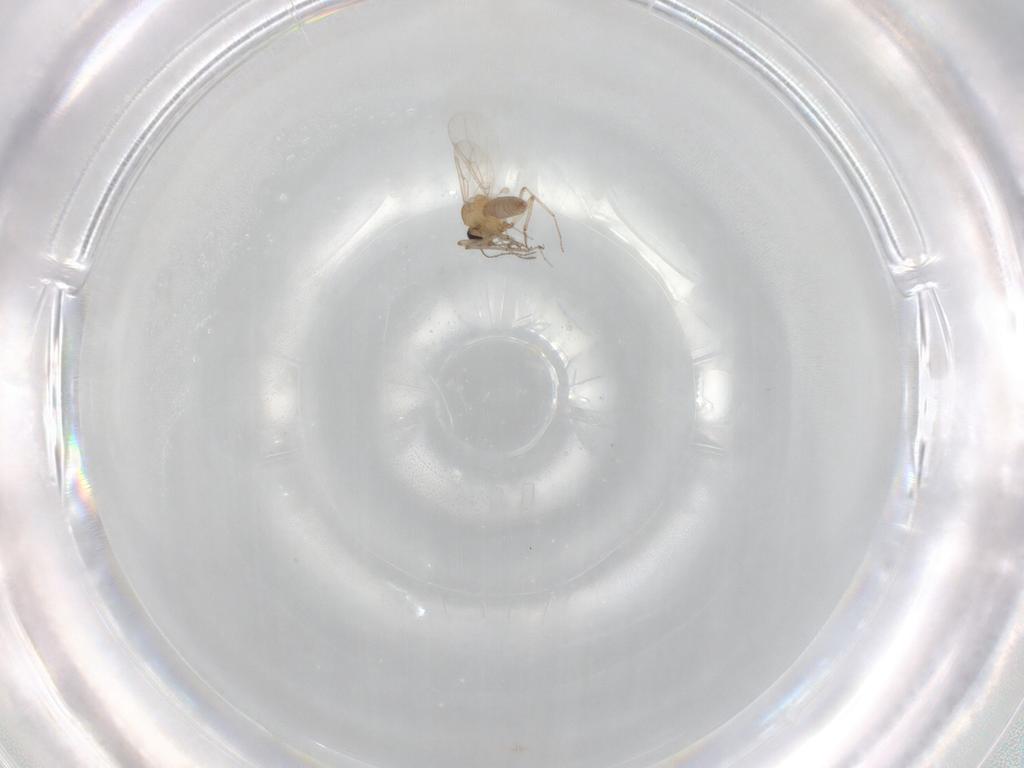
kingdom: Animalia
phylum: Arthropoda
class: Insecta
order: Diptera
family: Ceratopogonidae
